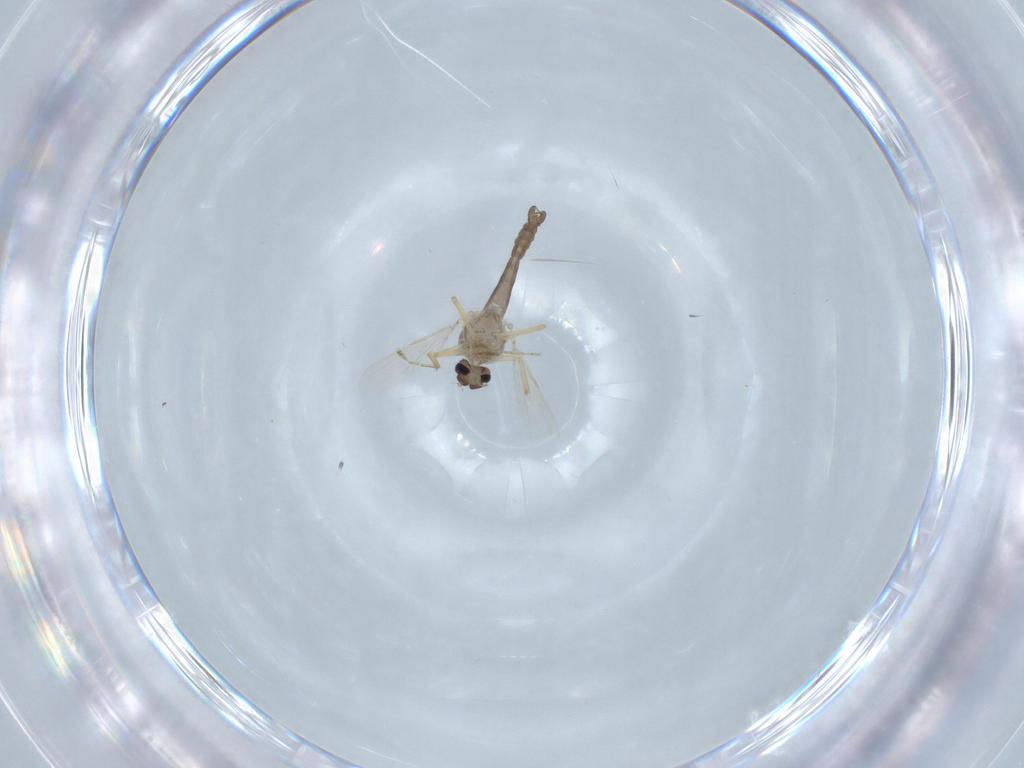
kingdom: Animalia
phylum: Arthropoda
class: Insecta
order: Diptera
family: Ceratopogonidae
